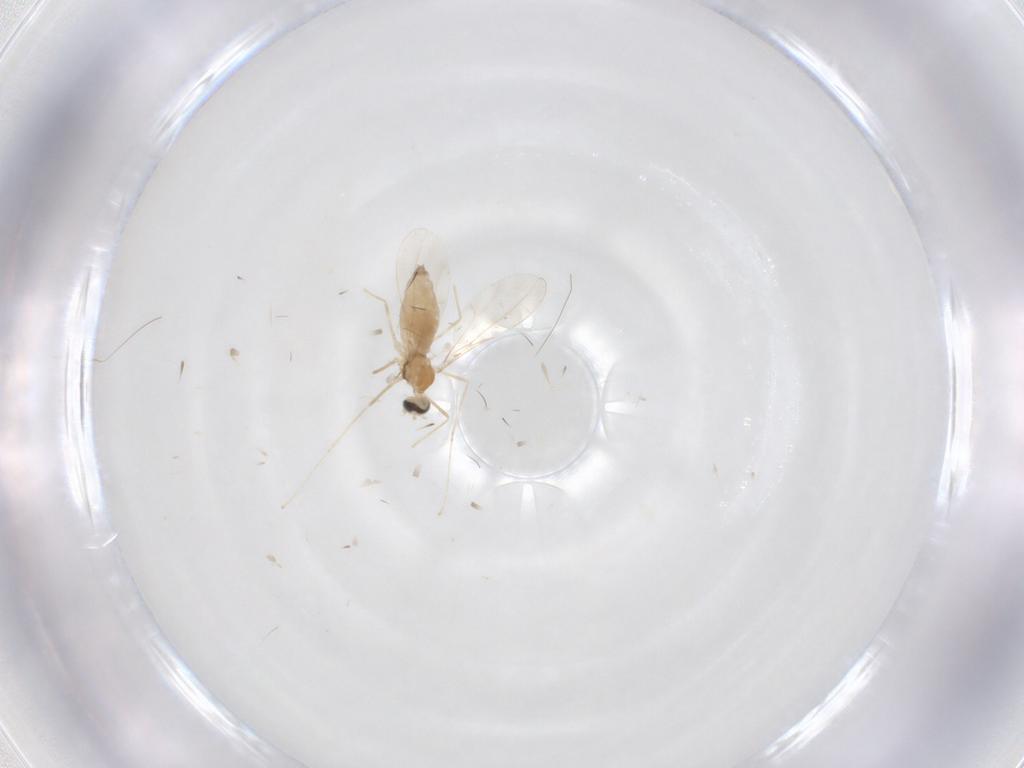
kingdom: Animalia
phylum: Arthropoda
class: Insecta
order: Diptera
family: Cecidomyiidae
